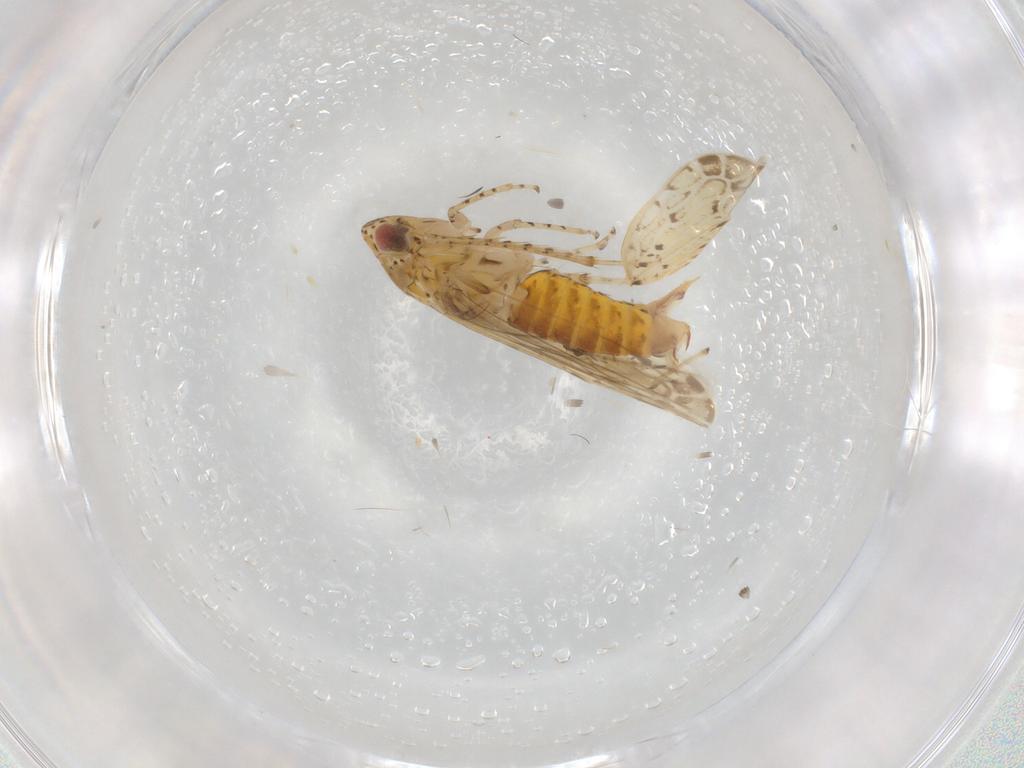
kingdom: Animalia
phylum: Arthropoda
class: Insecta
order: Hemiptera
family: Cicadellidae
